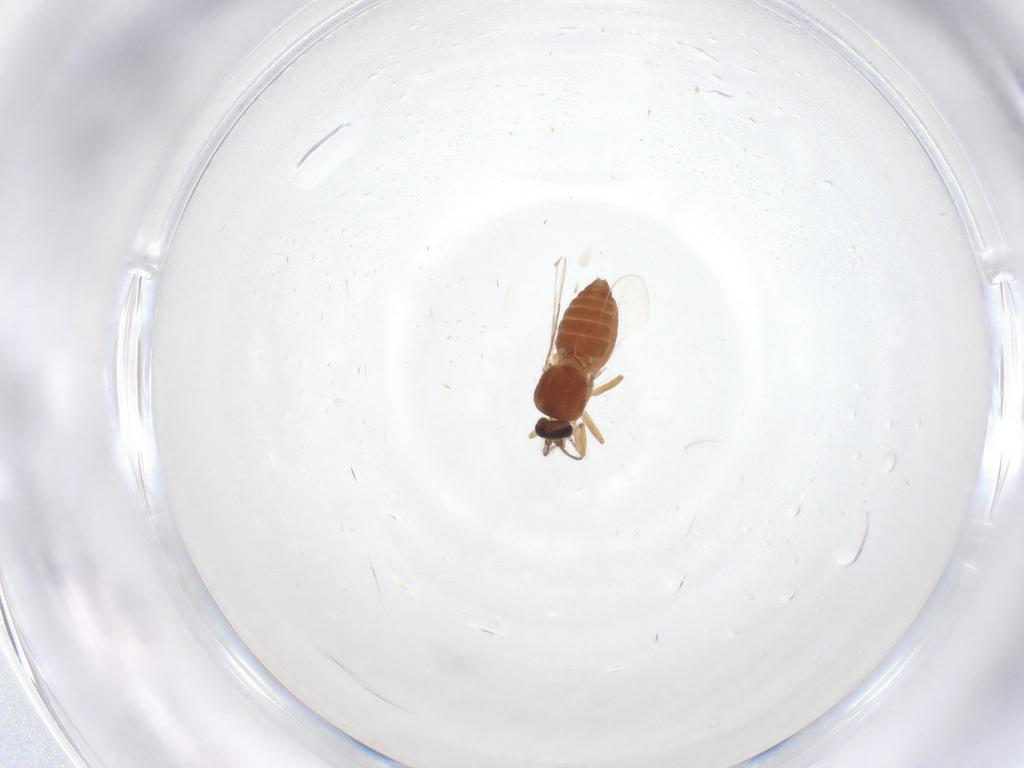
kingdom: Animalia
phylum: Arthropoda
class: Insecta
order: Diptera
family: Ceratopogonidae
